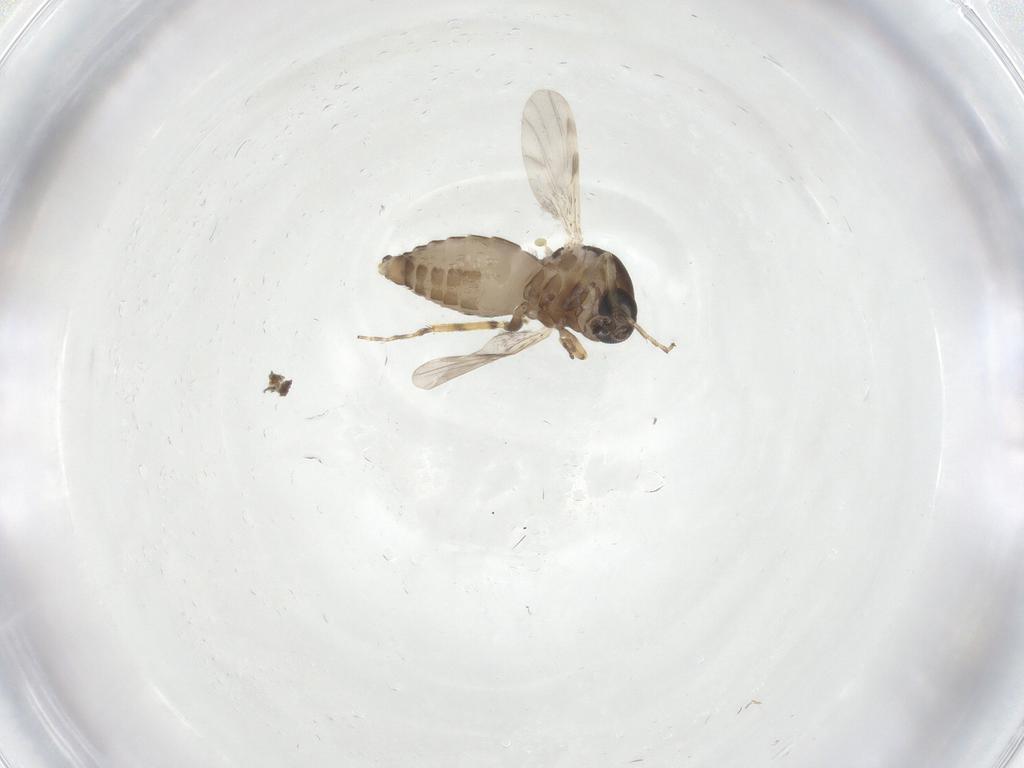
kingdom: Animalia
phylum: Arthropoda
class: Insecta
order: Diptera
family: Ceratopogonidae
